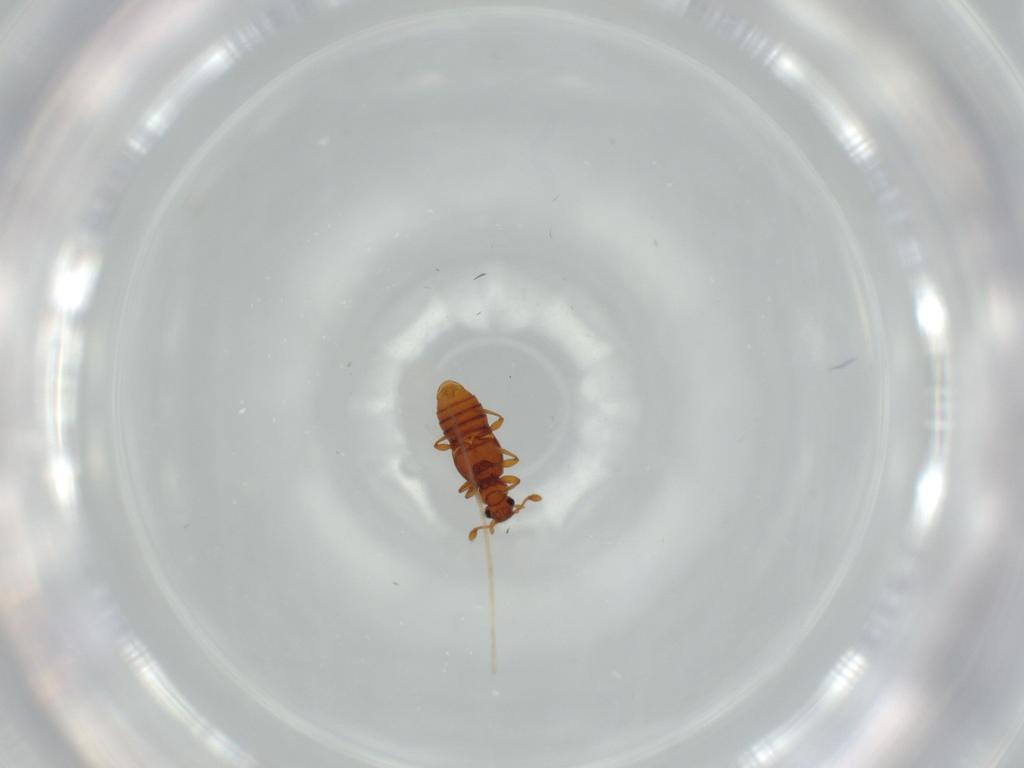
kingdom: Animalia
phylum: Arthropoda
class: Insecta
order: Coleoptera
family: Staphylinidae
